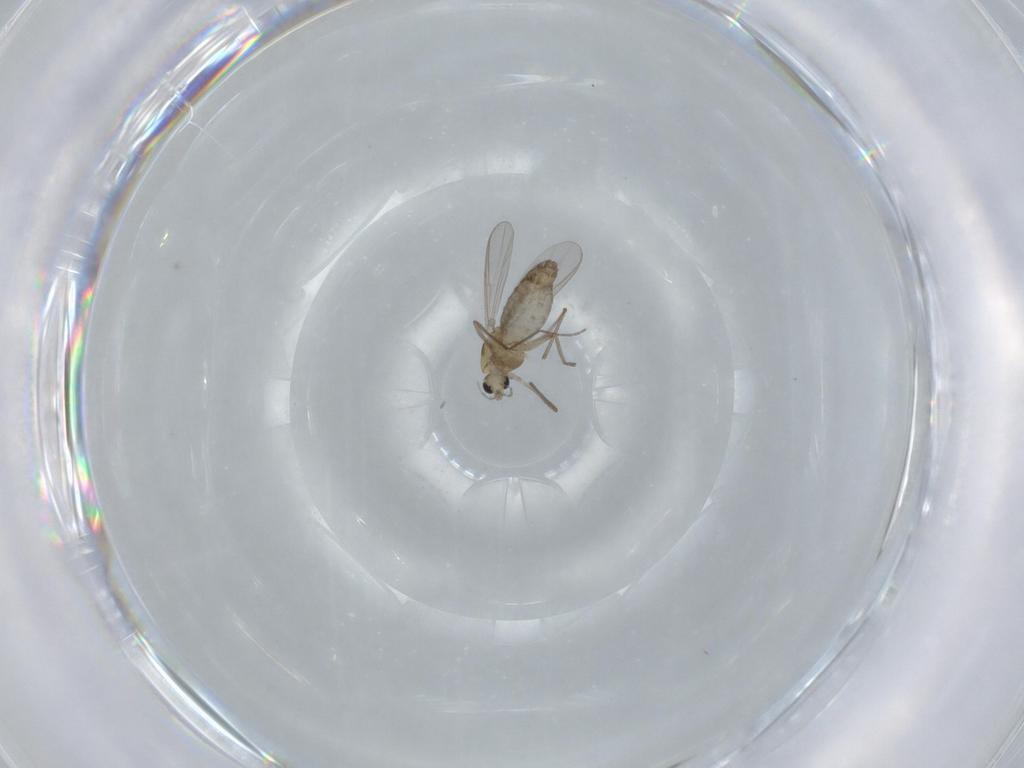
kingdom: Animalia
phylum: Arthropoda
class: Insecta
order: Diptera
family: Chironomidae
